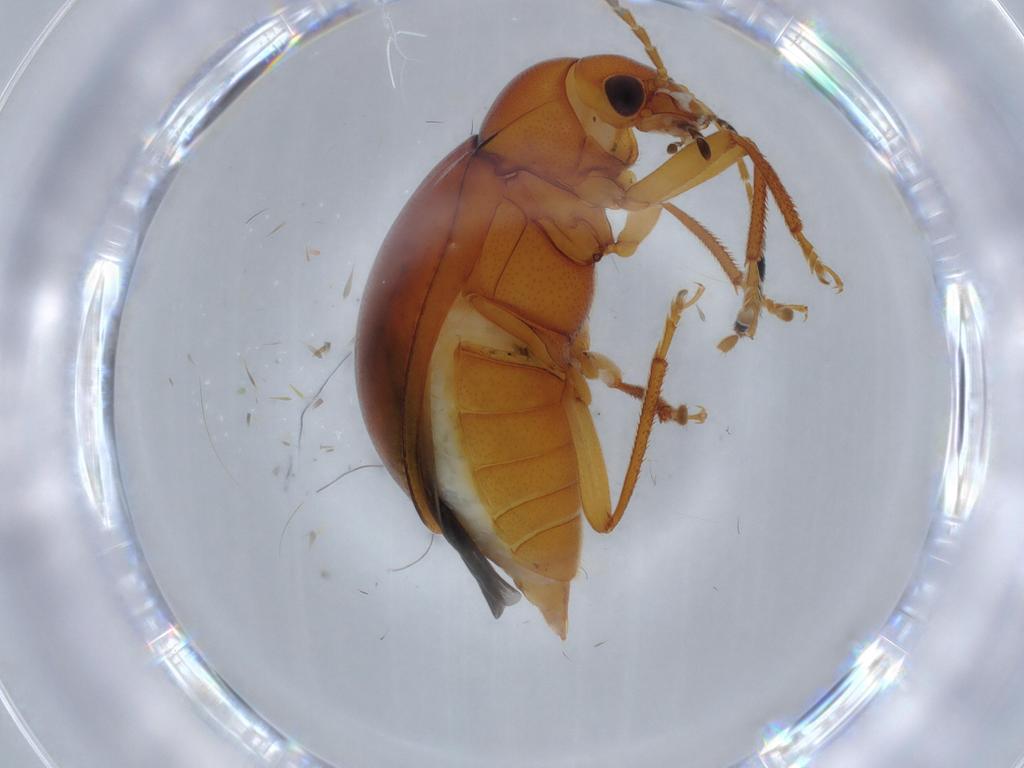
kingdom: Animalia
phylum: Arthropoda
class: Insecta
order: Coleoptera
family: Ptilodactylidae
